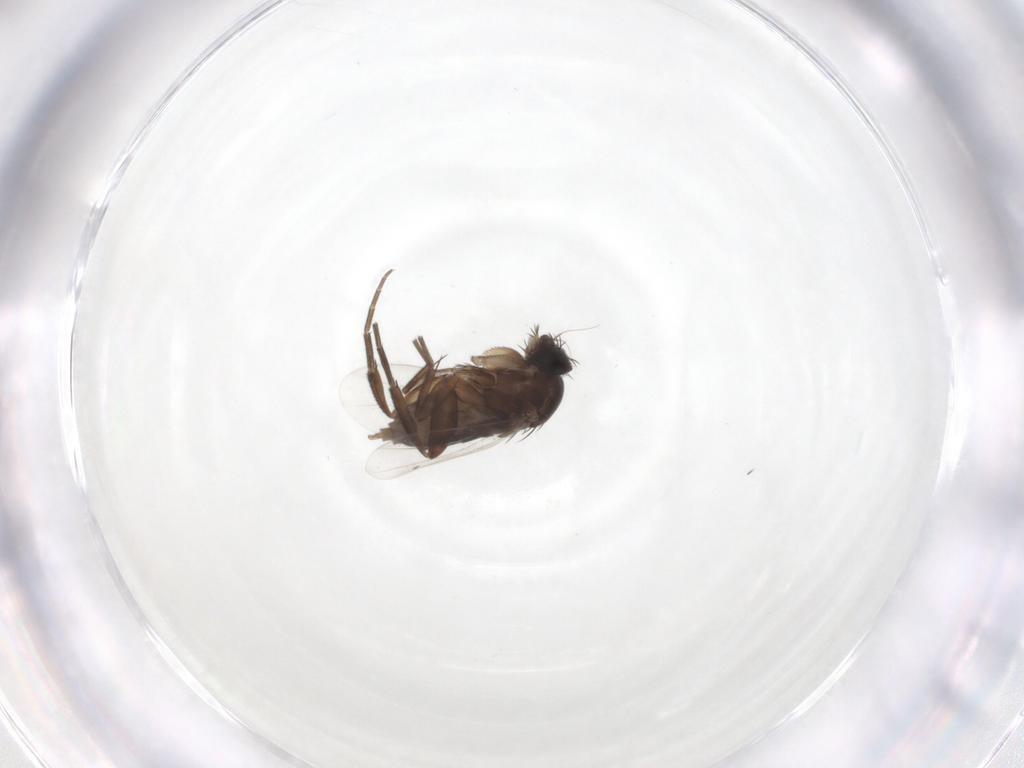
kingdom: Animalia
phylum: Arthropoda
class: Insecta
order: Diptera
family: Phoridae
